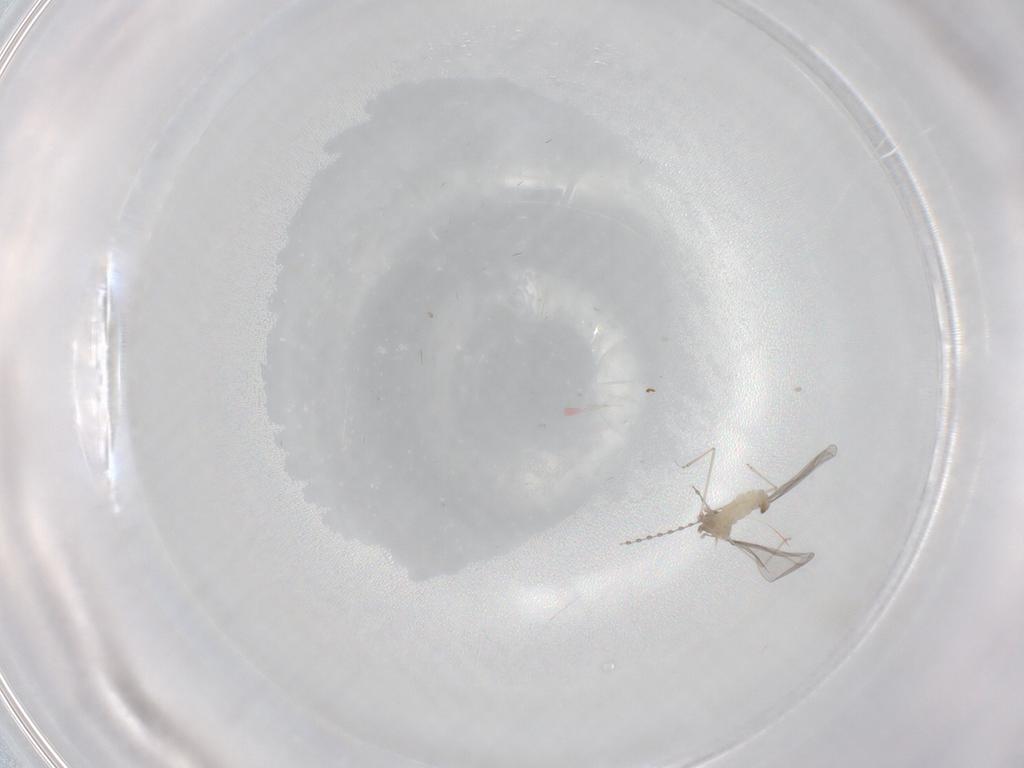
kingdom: Animalia
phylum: Arthropoda
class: Insecta
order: Diptera
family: Cecidomyiidae
